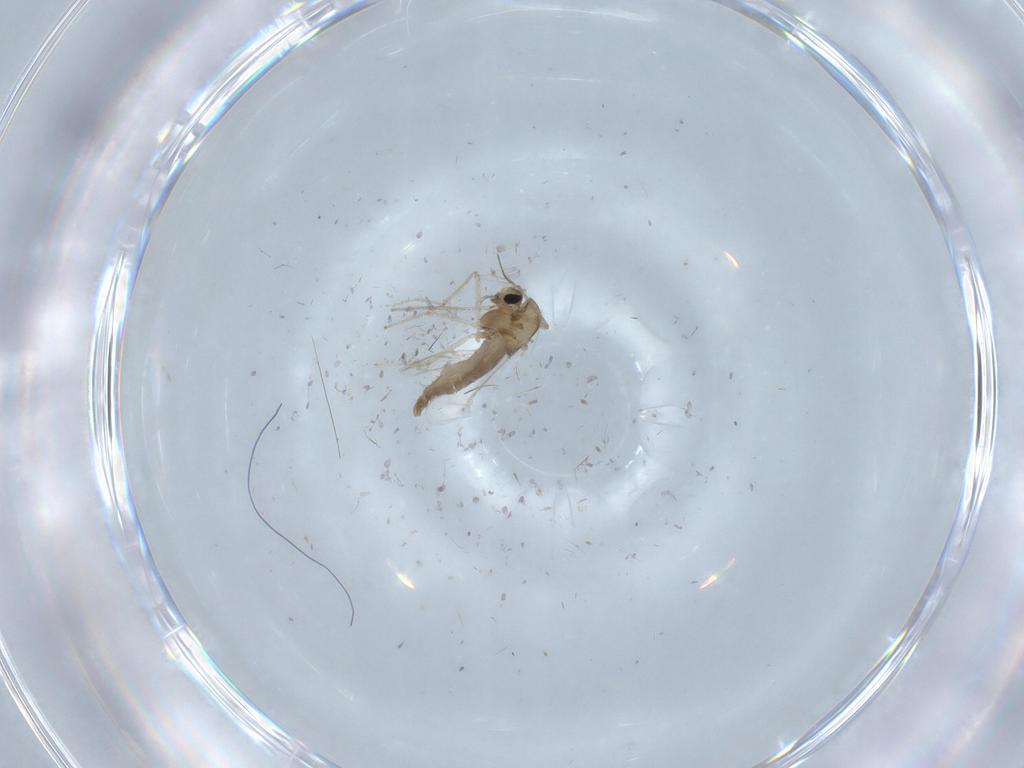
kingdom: Animalia
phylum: Arthropoda
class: Insecta
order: Diptera
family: Chironomidae
